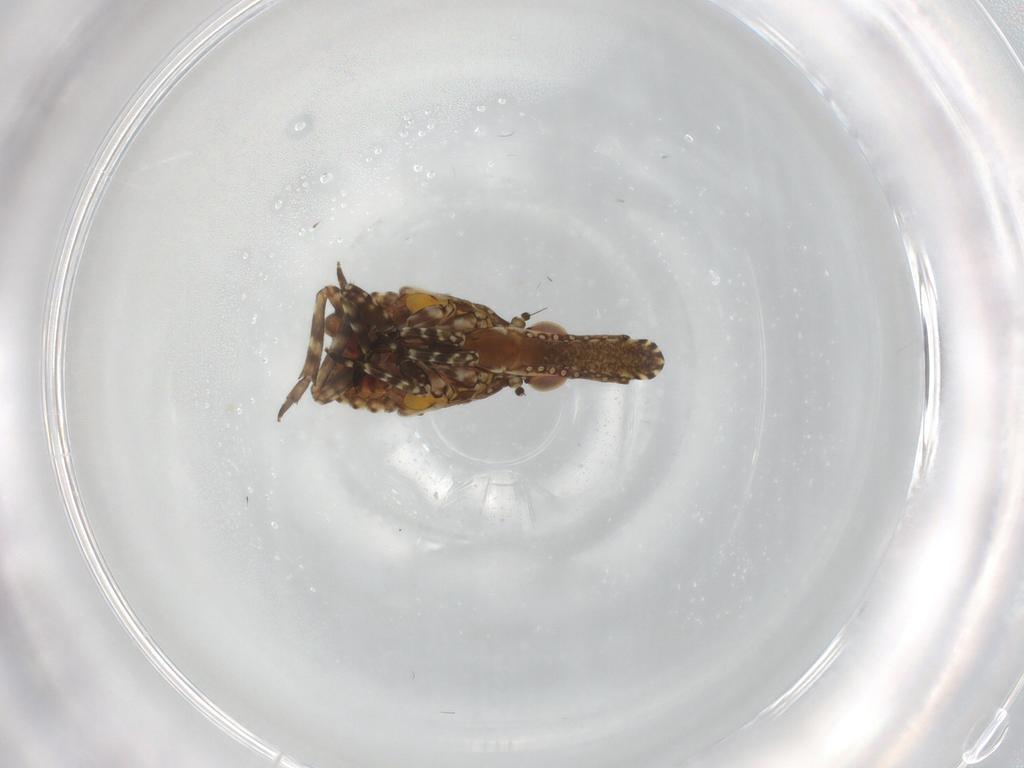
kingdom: Animalia
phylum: Arthropoda
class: Insecta
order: Hemiptera
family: Fulgoridae
